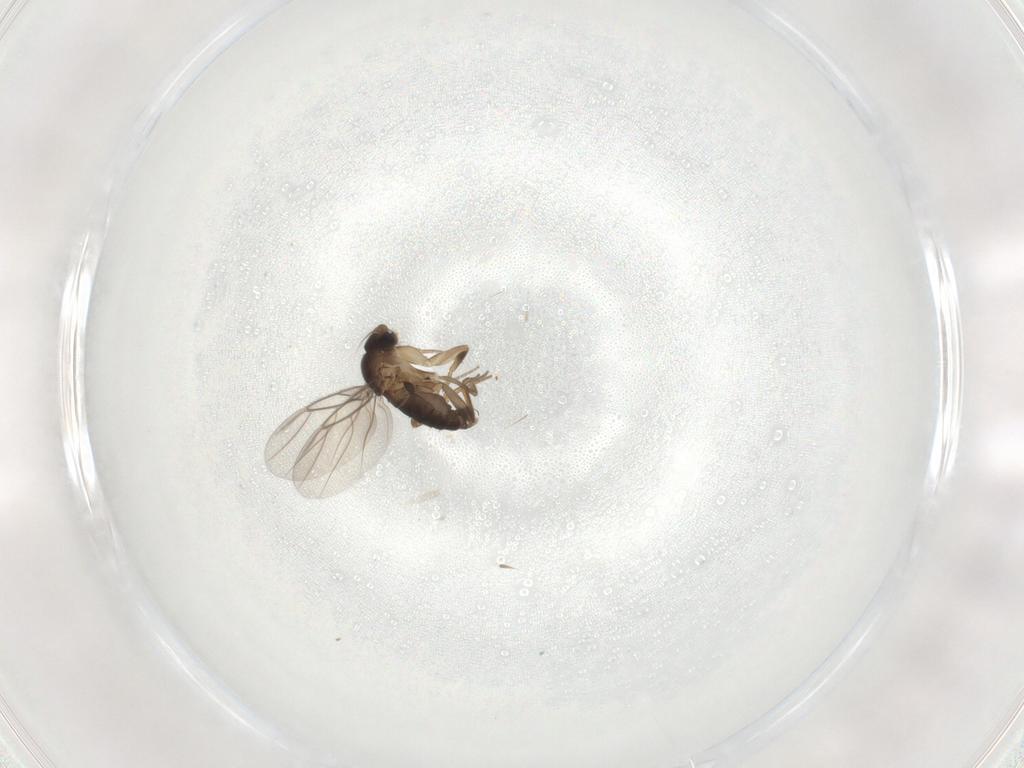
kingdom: Animalia
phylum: Arthropoda
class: Insecta
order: Diptera
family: Phoridae
